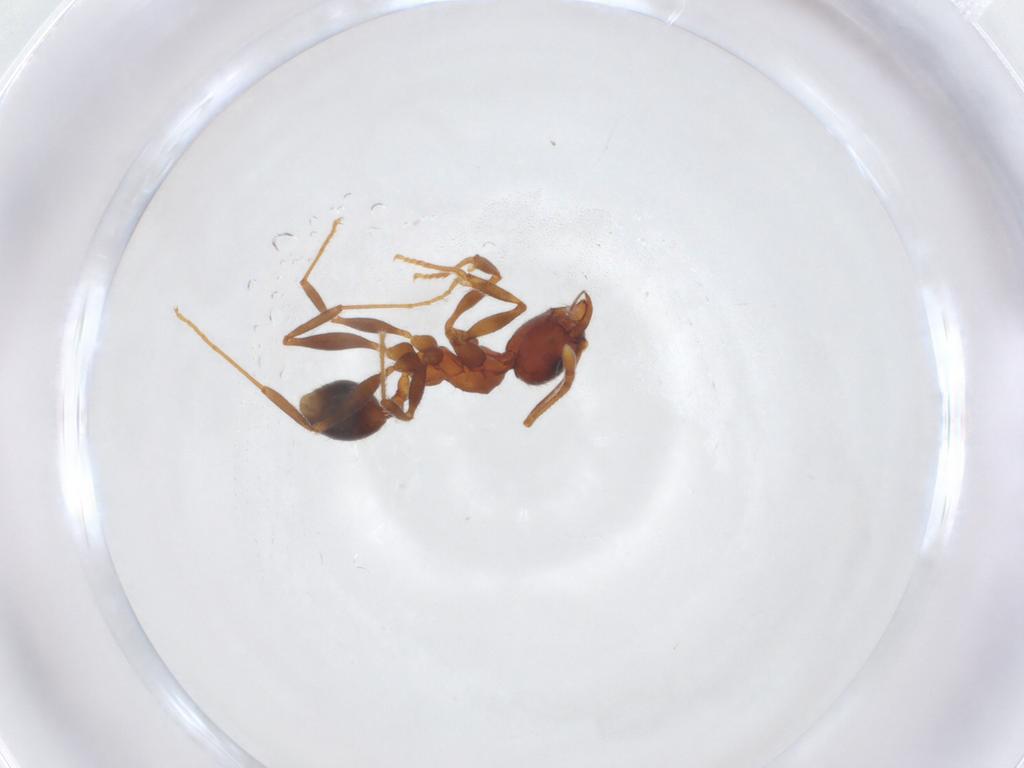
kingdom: Animalia
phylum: Arthropoda
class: Insecta
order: Hymenoptera
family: Formicidae
